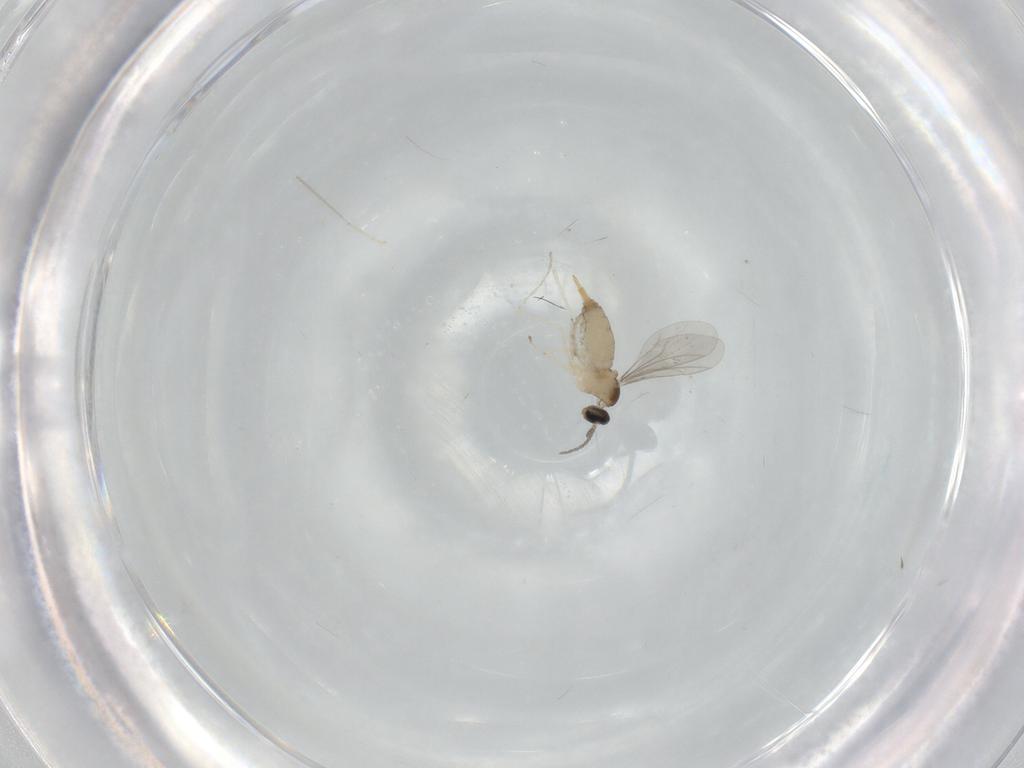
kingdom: Animalia
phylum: Arthropoda
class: Insecta
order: Diptera
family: Cecidomyiidae
